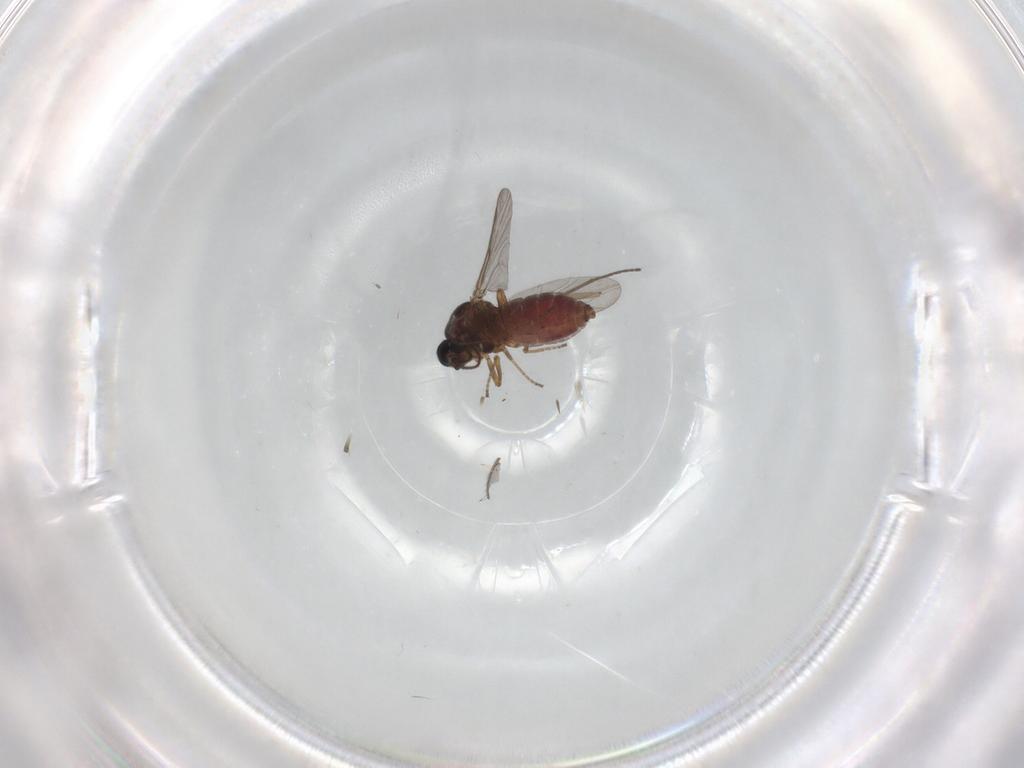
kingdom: Animalia
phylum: Arthropoda
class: Insecta
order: Diptera
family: Ceratopogonidae
